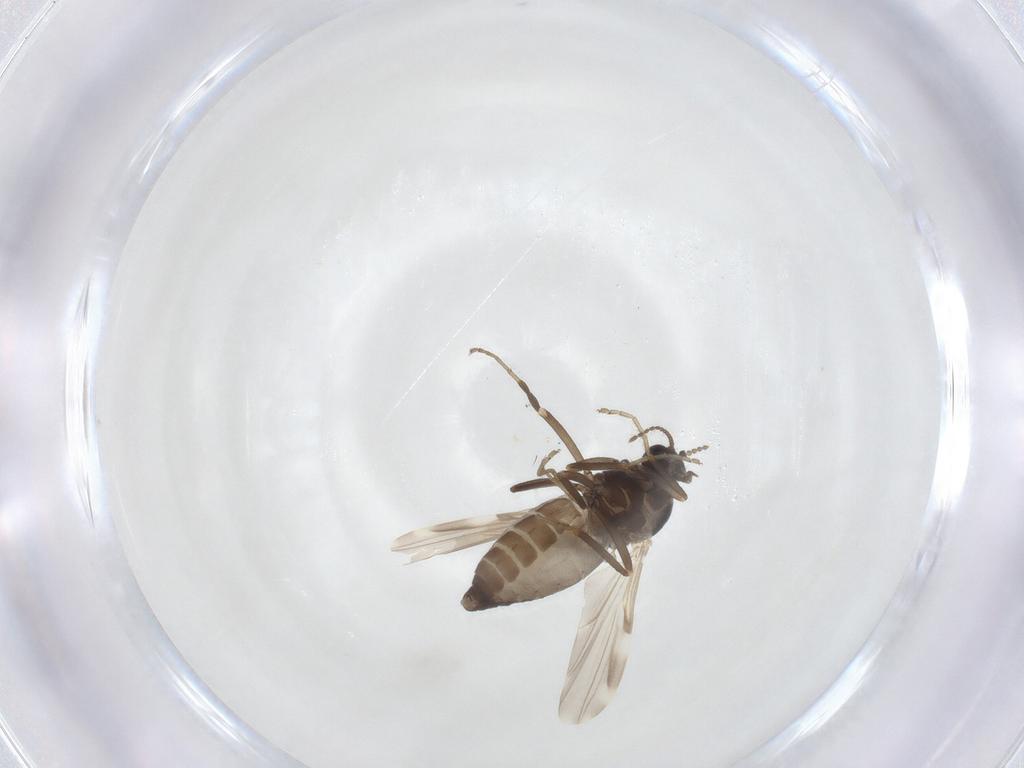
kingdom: Animalia
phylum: Arthropoda
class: Insecta
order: Diptera
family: Ceratopogonidae
